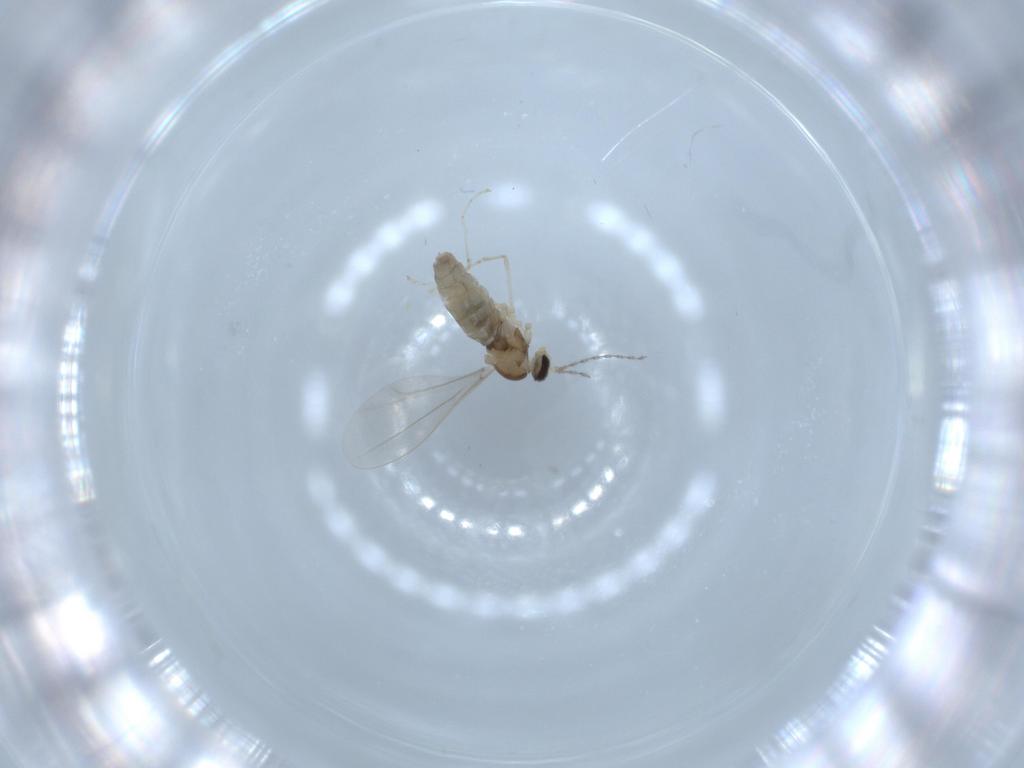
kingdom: Animalia
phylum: Arthropoda
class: Insecta
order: Diptera
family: Cecidomyiidae
